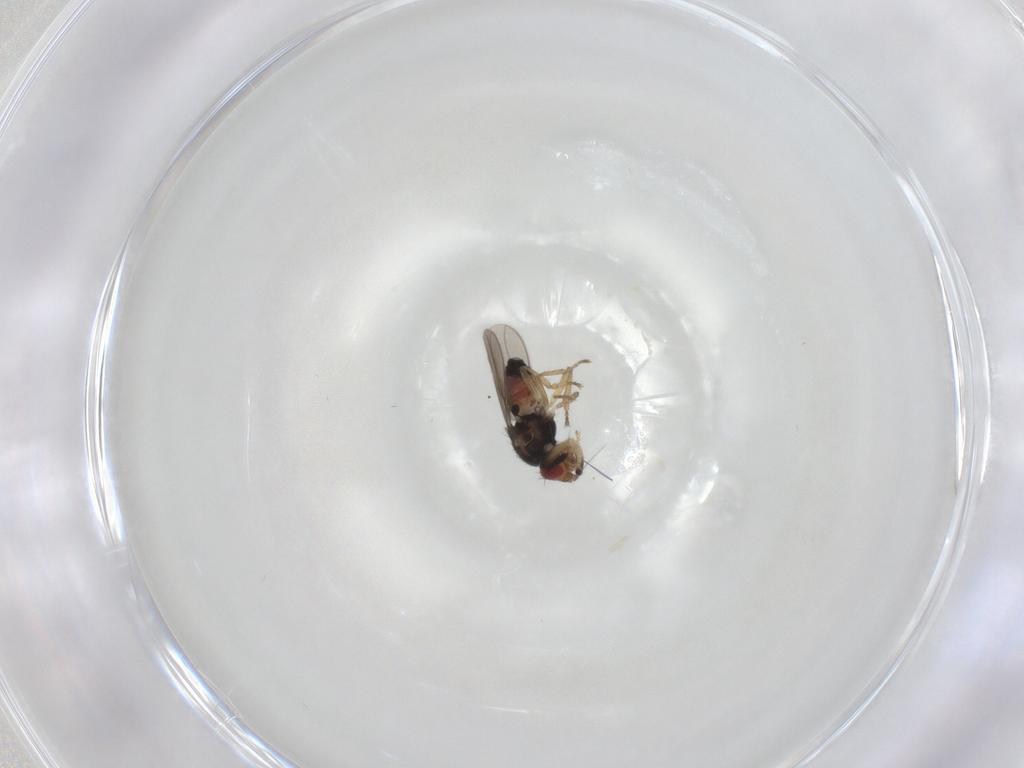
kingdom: Animalia
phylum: Arthropoda
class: Insecta
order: Diptera
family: Sphaeroceridae
